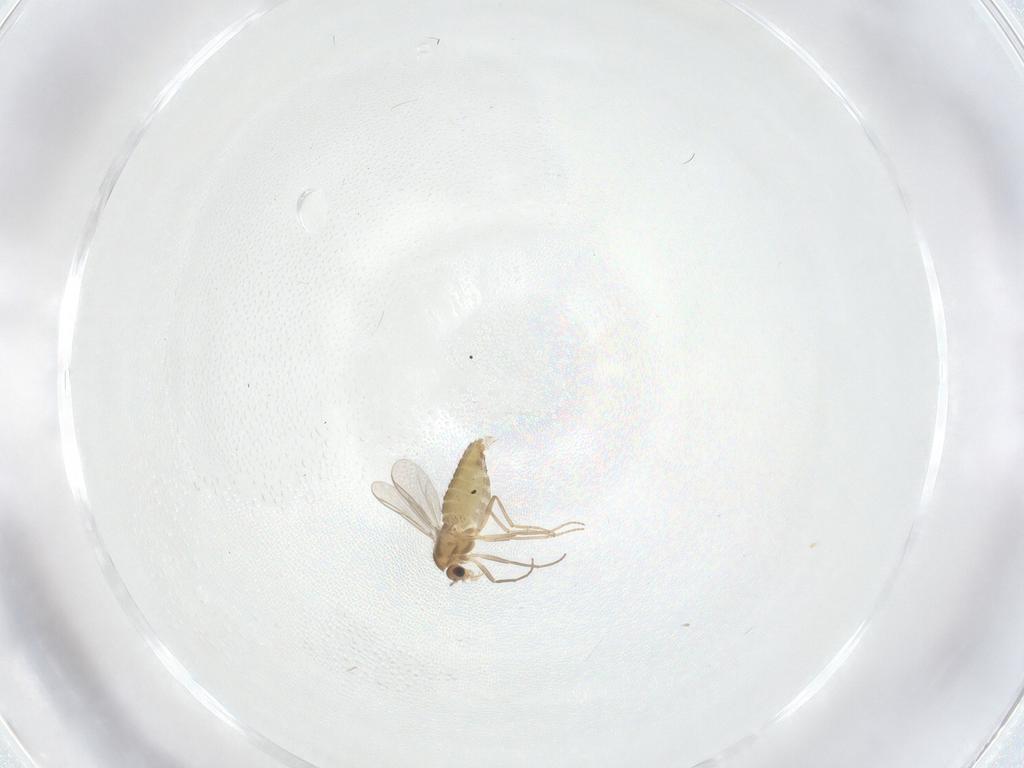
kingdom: Animalia
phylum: Arthropoda
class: Insecta
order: Diptera
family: Chironomidae
